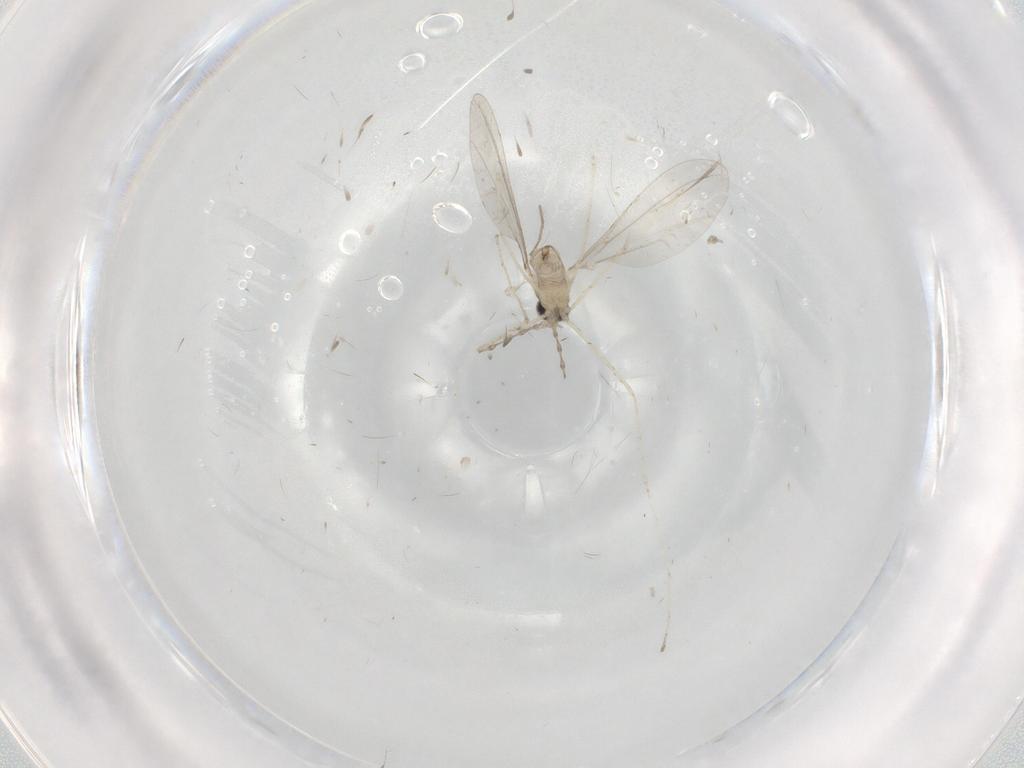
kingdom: Animalia
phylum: Arthropoda
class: Insecta
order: Diptera
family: Cecidomyiidae
